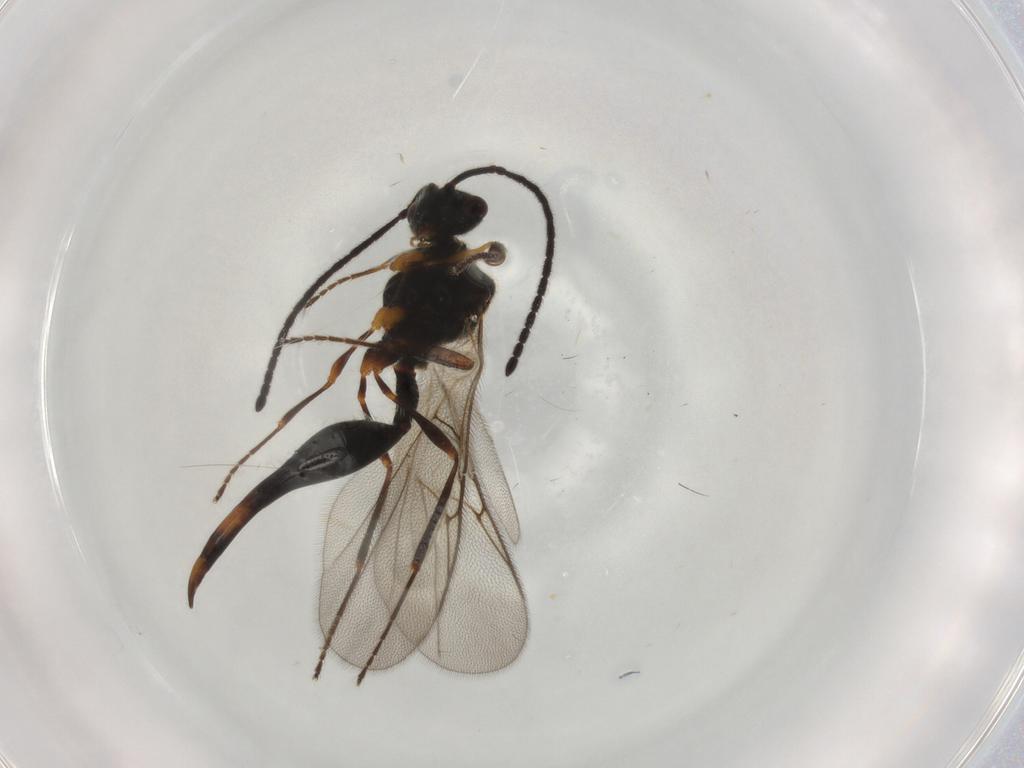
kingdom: Animalia
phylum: Arthropoda
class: Insecta
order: Hymenoptera
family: Diapriidae
